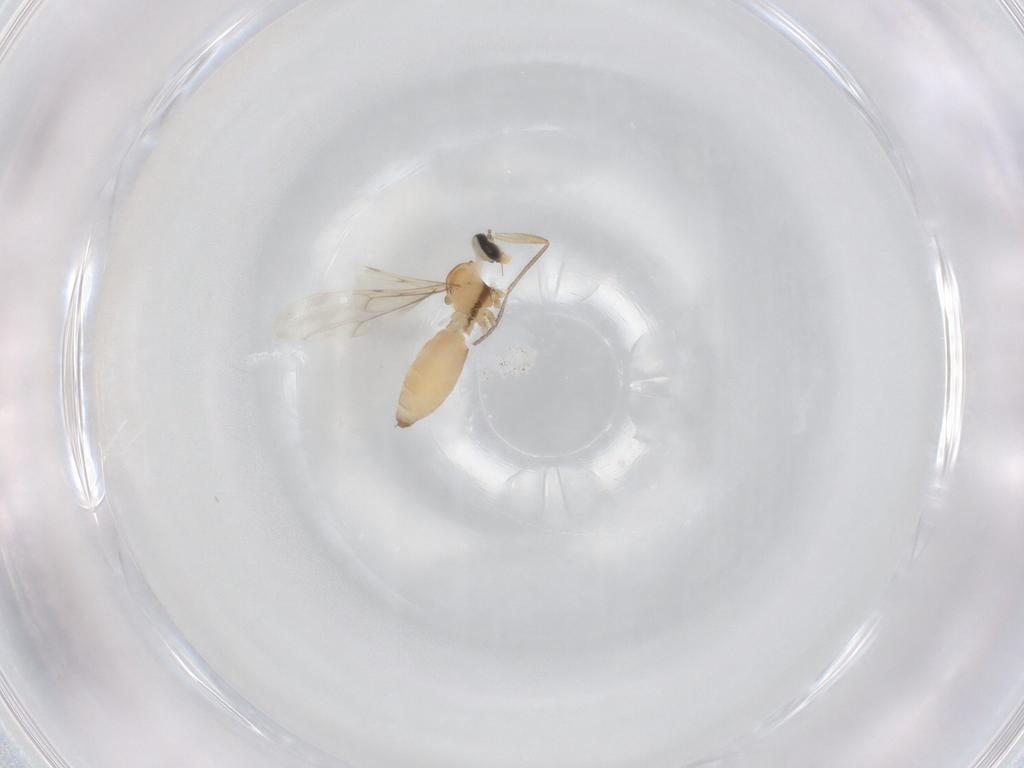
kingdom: Animalia
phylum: Arthropoda
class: Insecta
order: Diptera
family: Cecidomyiidae
